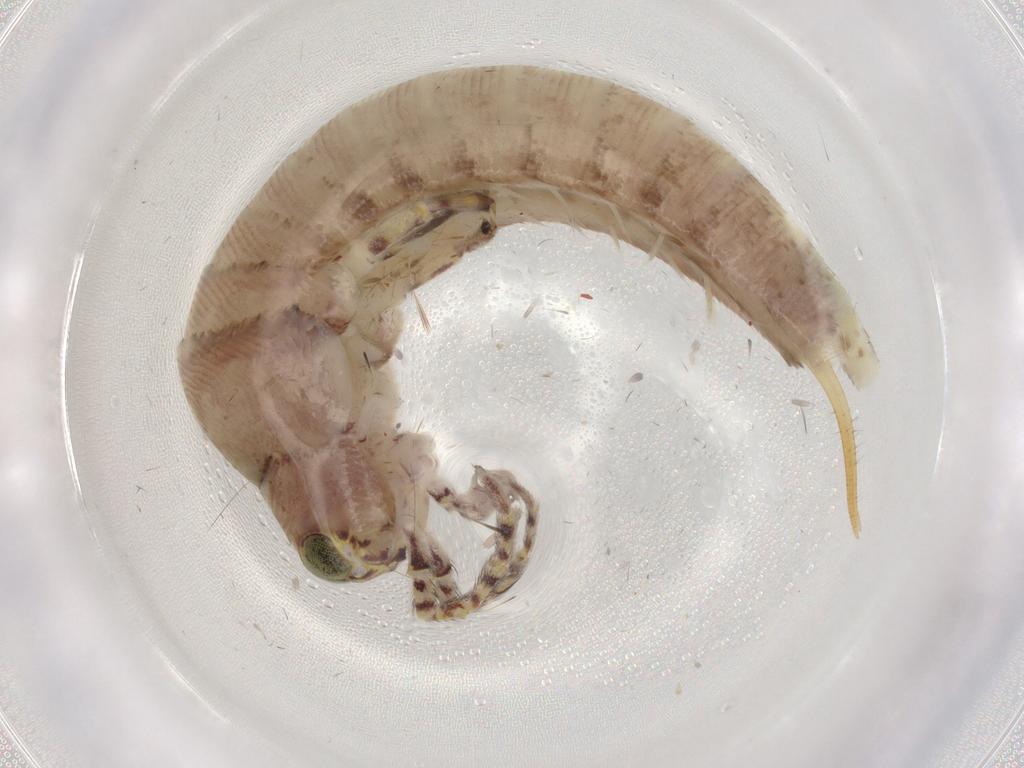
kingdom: Animalia
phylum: Arthropoda
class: Insecta
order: Archaeognatha
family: Machilidae
